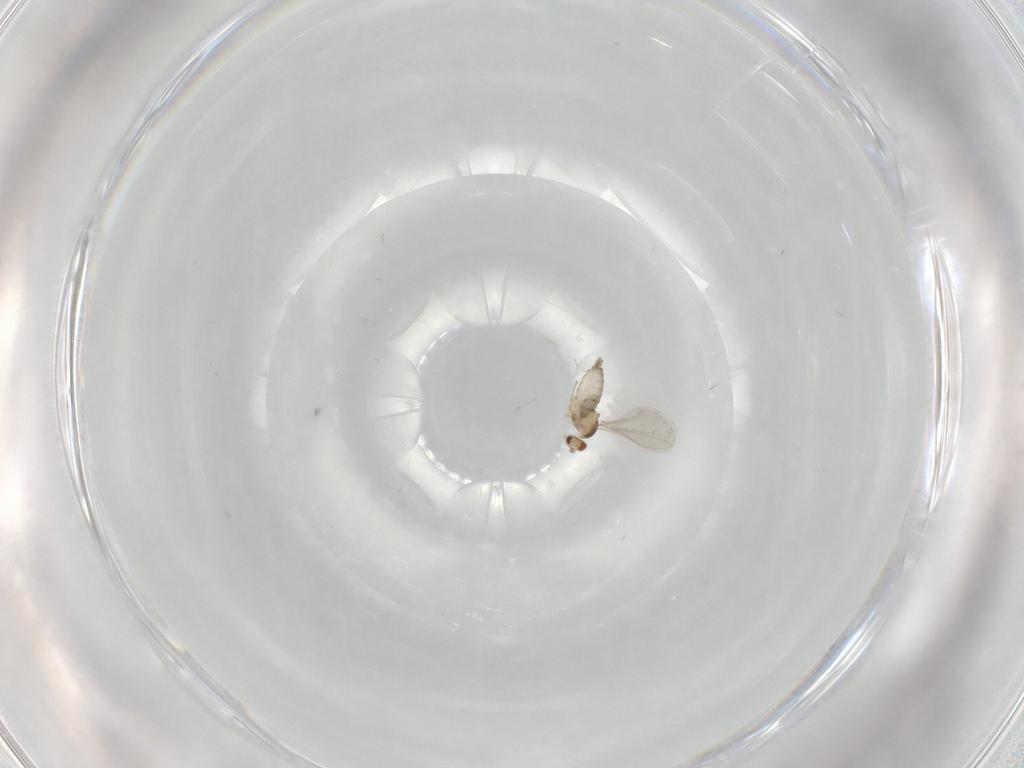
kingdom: Animalia
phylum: Arthropoda
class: Insecta
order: Diptera
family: Cecidomyiidae
